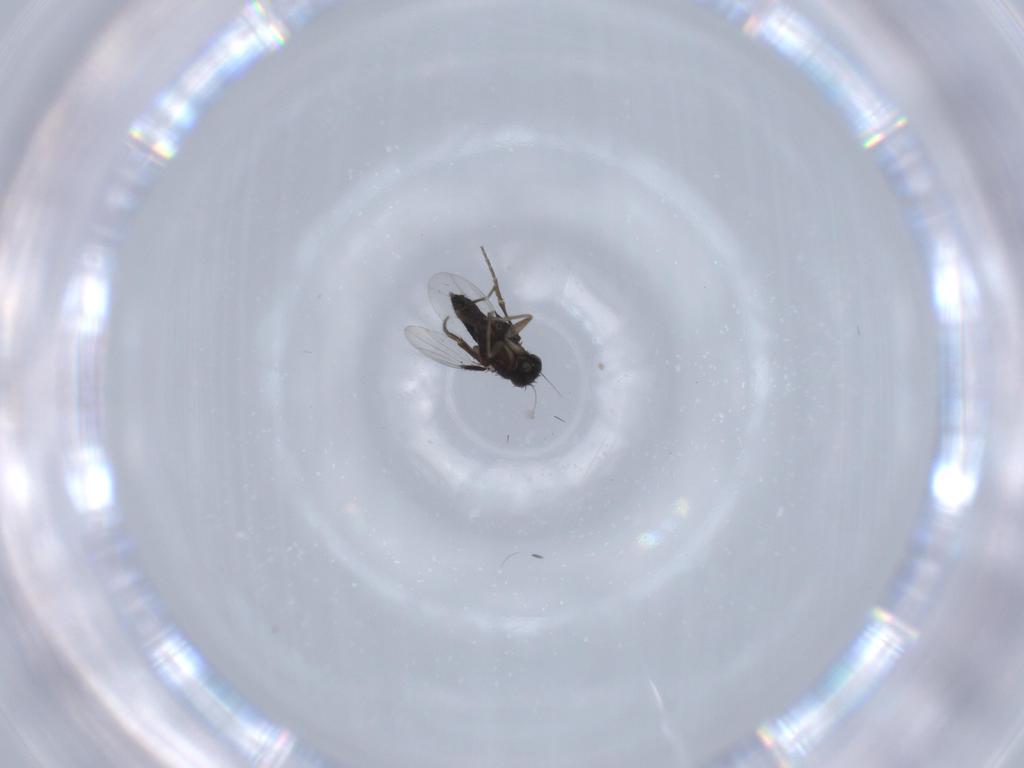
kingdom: Animalia
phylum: Arthropoda
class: Insecta
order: Diptera
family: Phoridae
